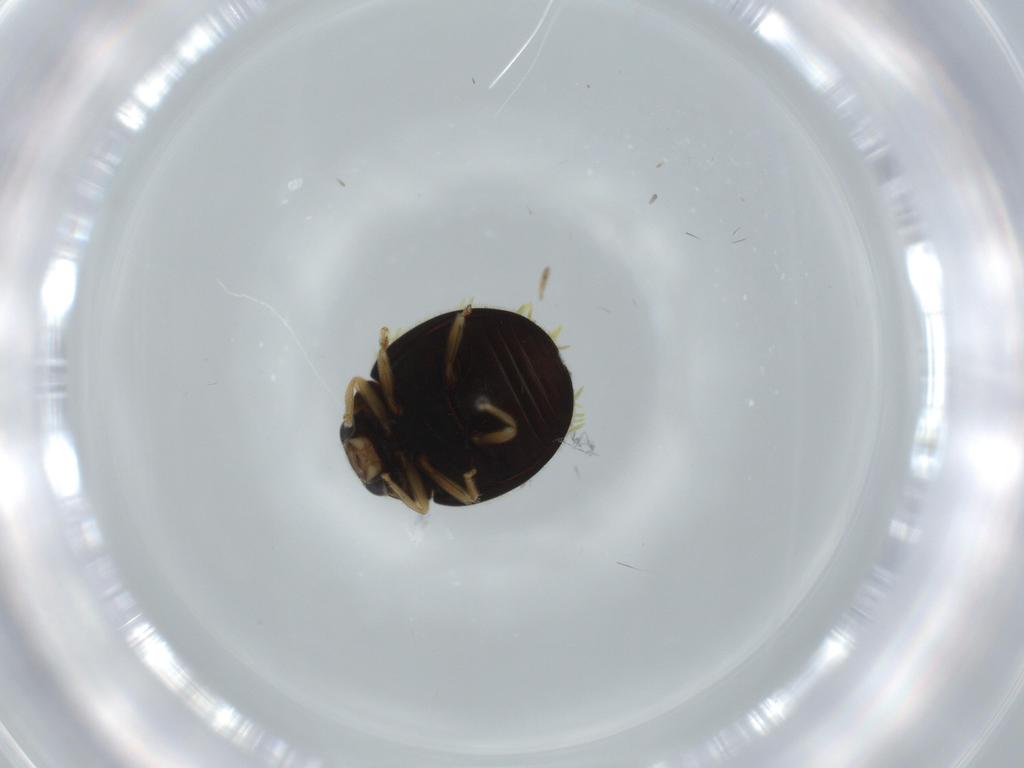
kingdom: Animalia
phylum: Arthropoda
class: Insecta
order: Coleoptera
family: Coccinellidae
